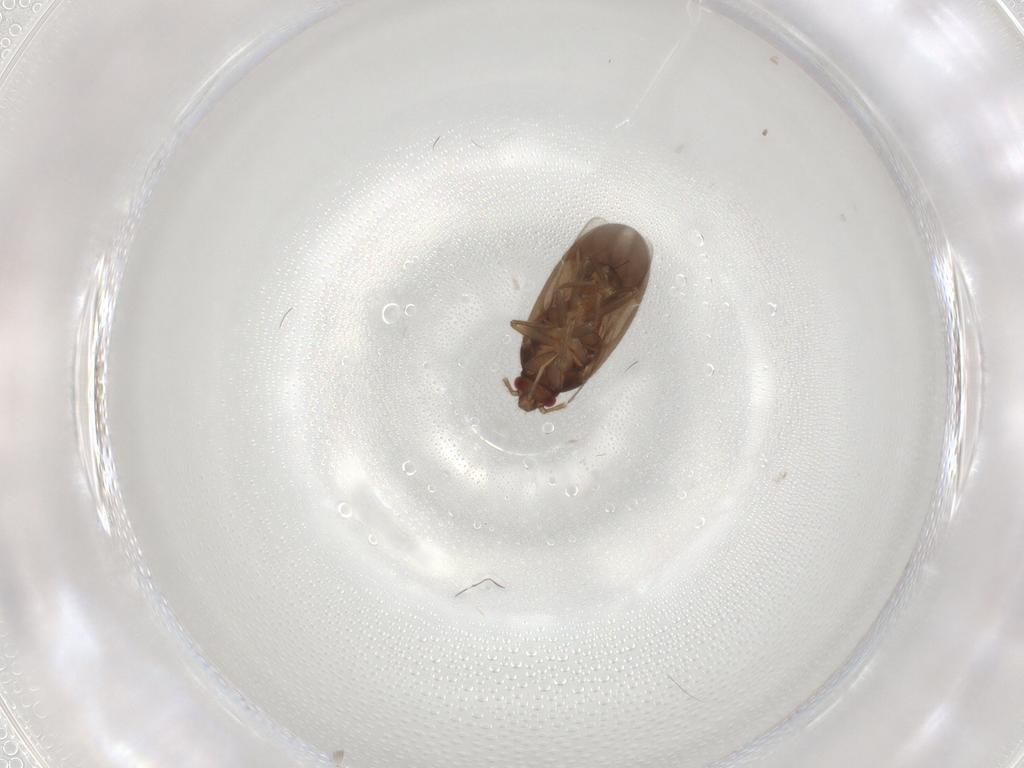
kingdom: Animalia
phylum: Arthropoda
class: Insecta
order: Hemiptera
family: Ceratocombidae
